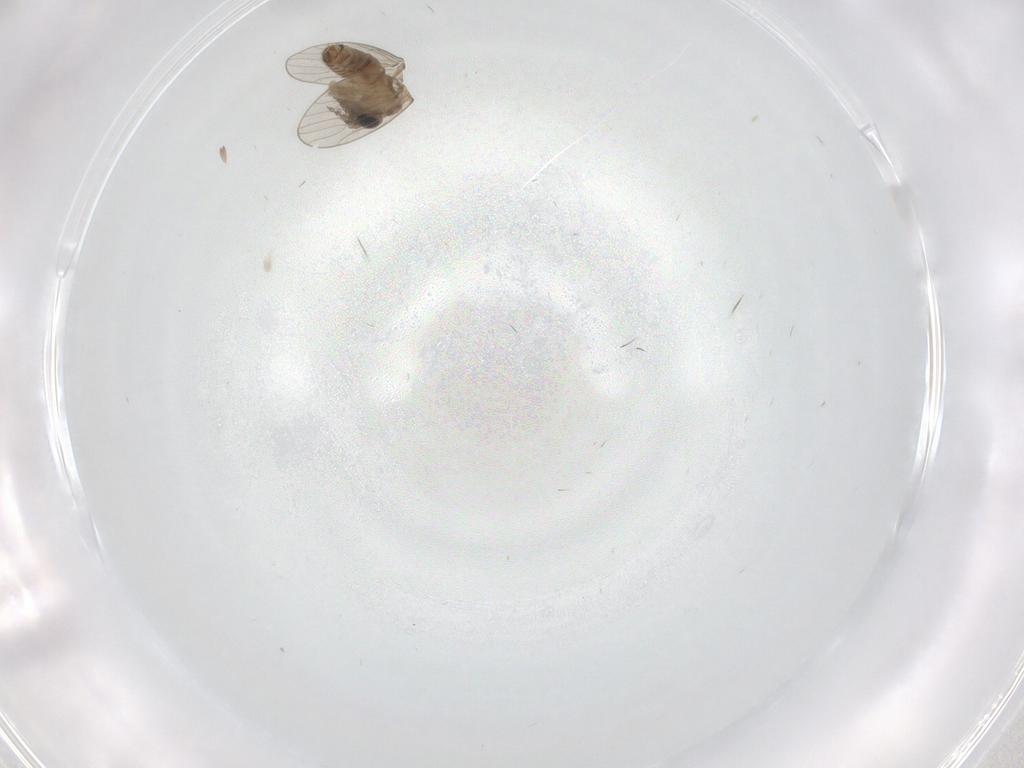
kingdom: Animalia
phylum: Arthropoda
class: Insecta
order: Diptera
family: Psychodidae
